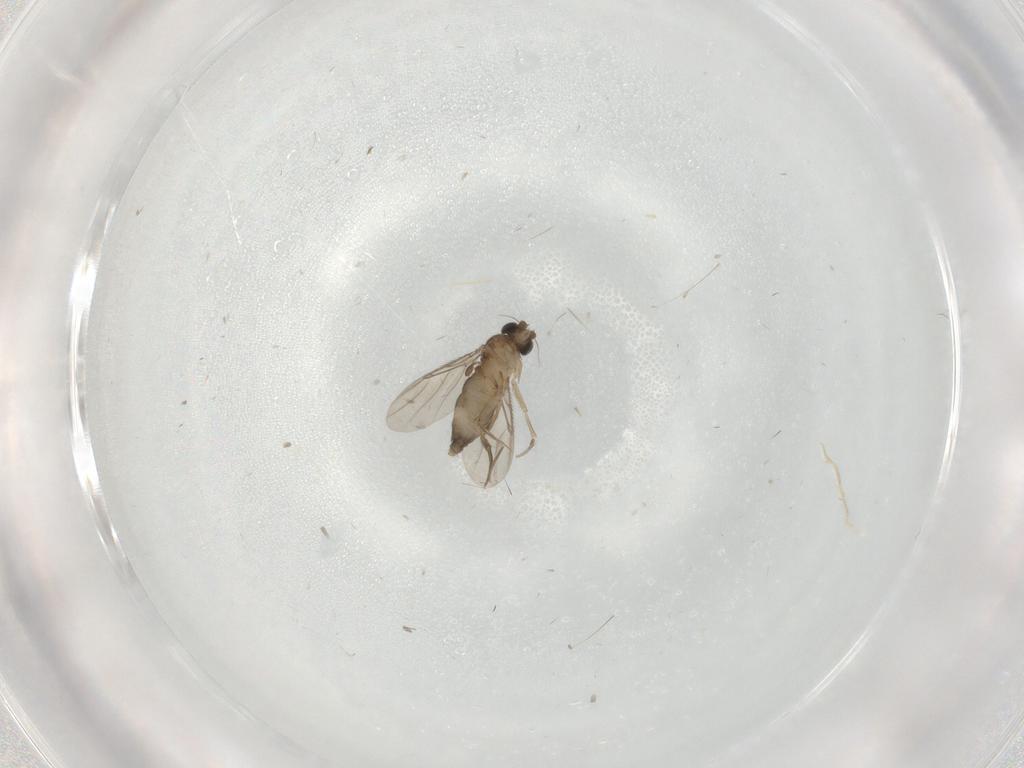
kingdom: Animalia
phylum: Arthropoda
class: Insecta
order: Diptera
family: Phoridae
